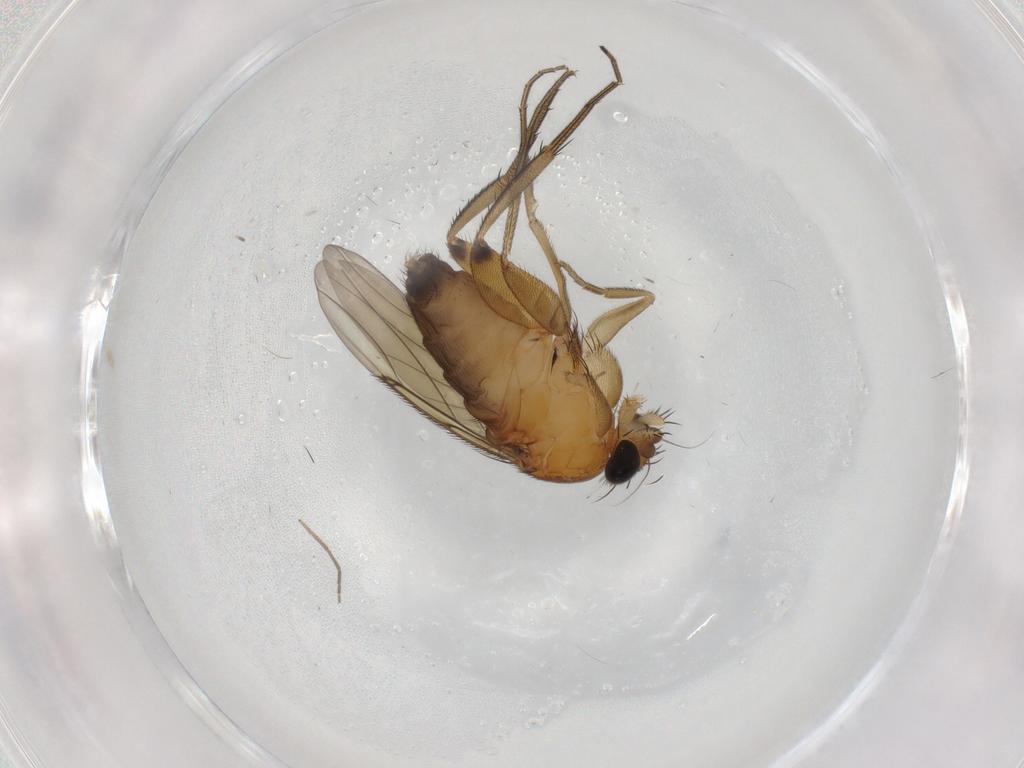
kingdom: Animalia
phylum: Arthropoda
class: Insecta
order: Diptera
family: Phoridae
